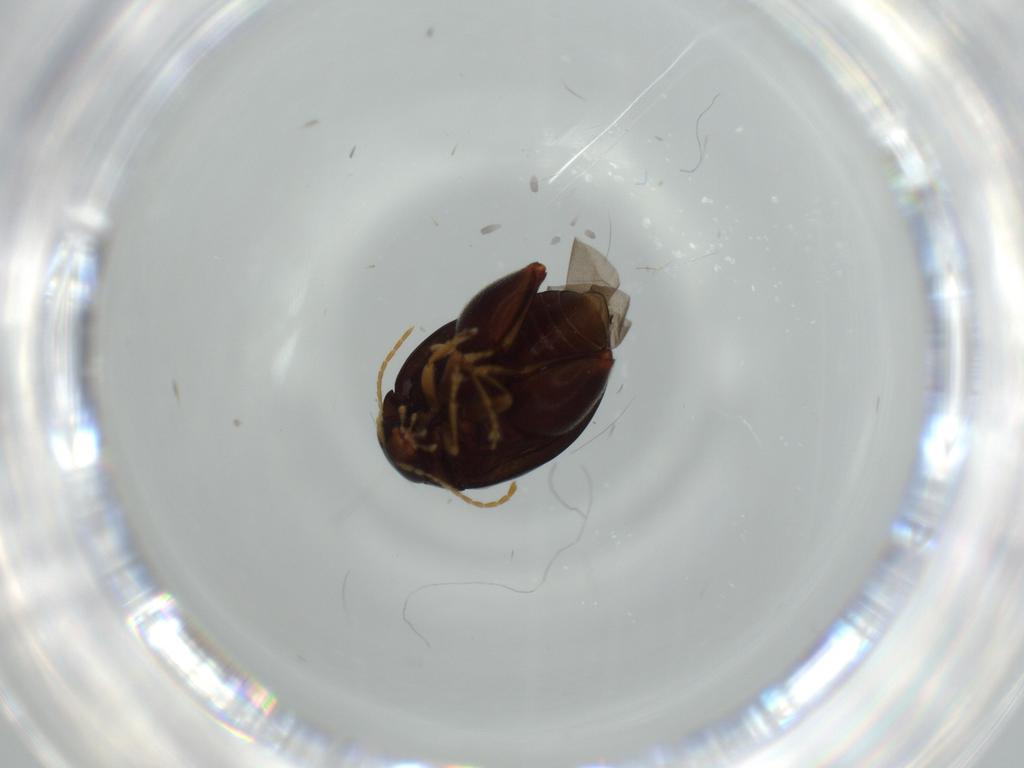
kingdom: Animalia
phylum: Arthropoda
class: Insecta
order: Coleoptera
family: Chrysomelidae
